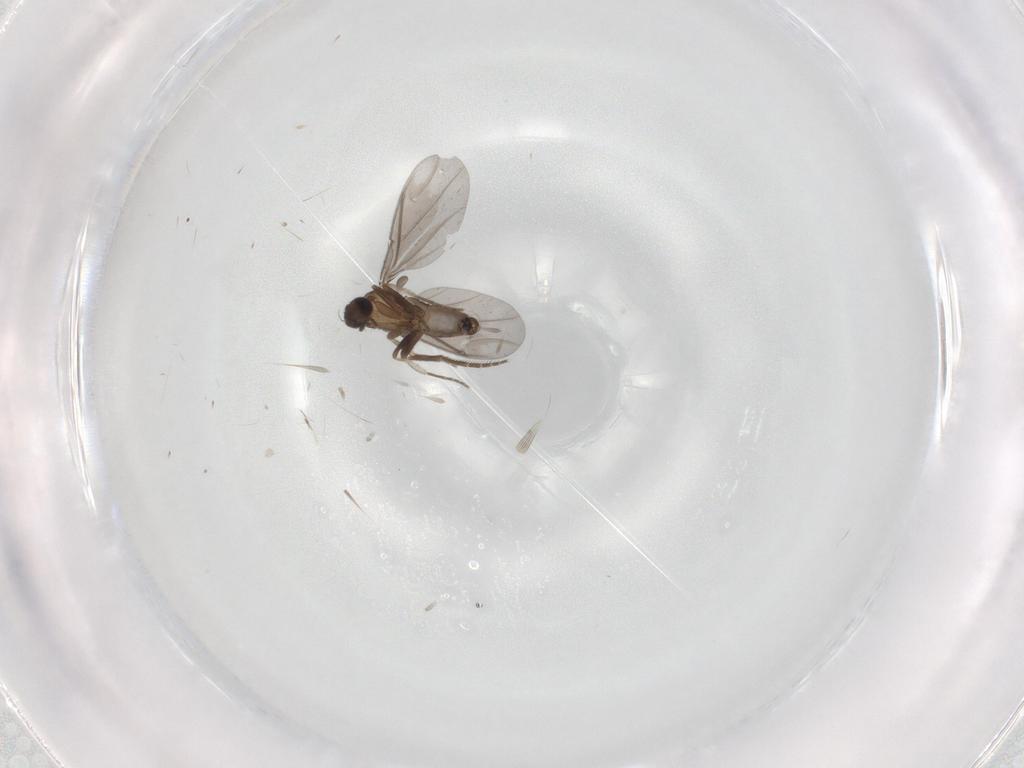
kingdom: Animalia
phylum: Arthropoda
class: Insecta
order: Diptera
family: Phoridae
